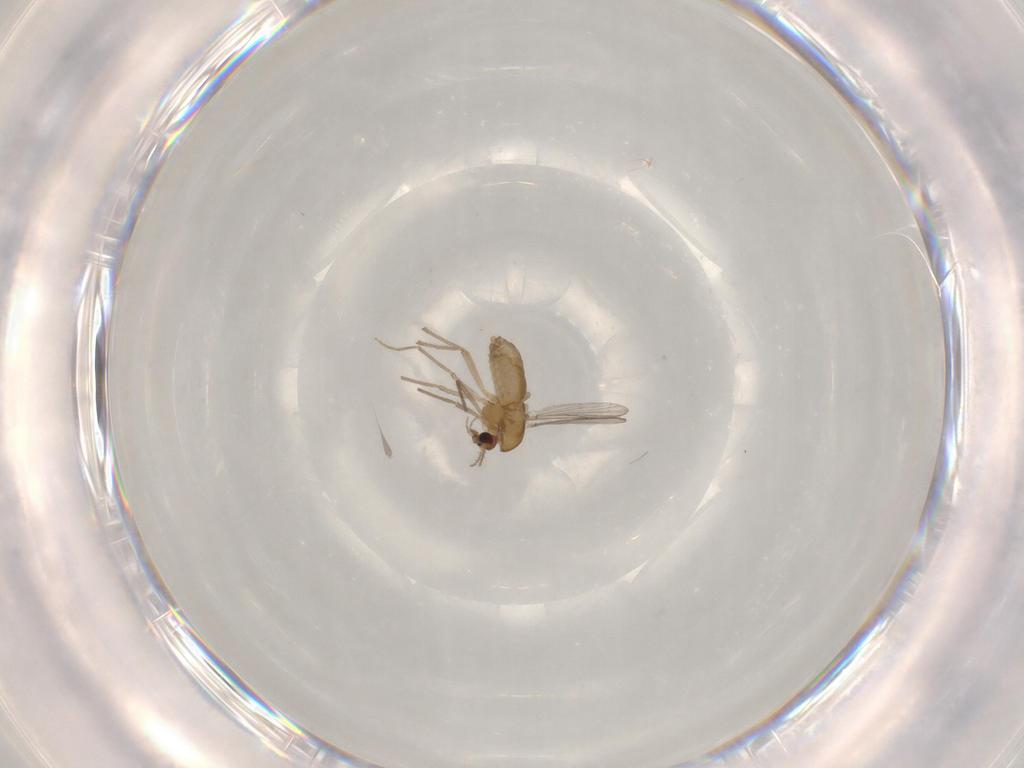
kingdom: Animalia
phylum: Arthropoda
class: Insecta
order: Diptera
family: Chironomidae
